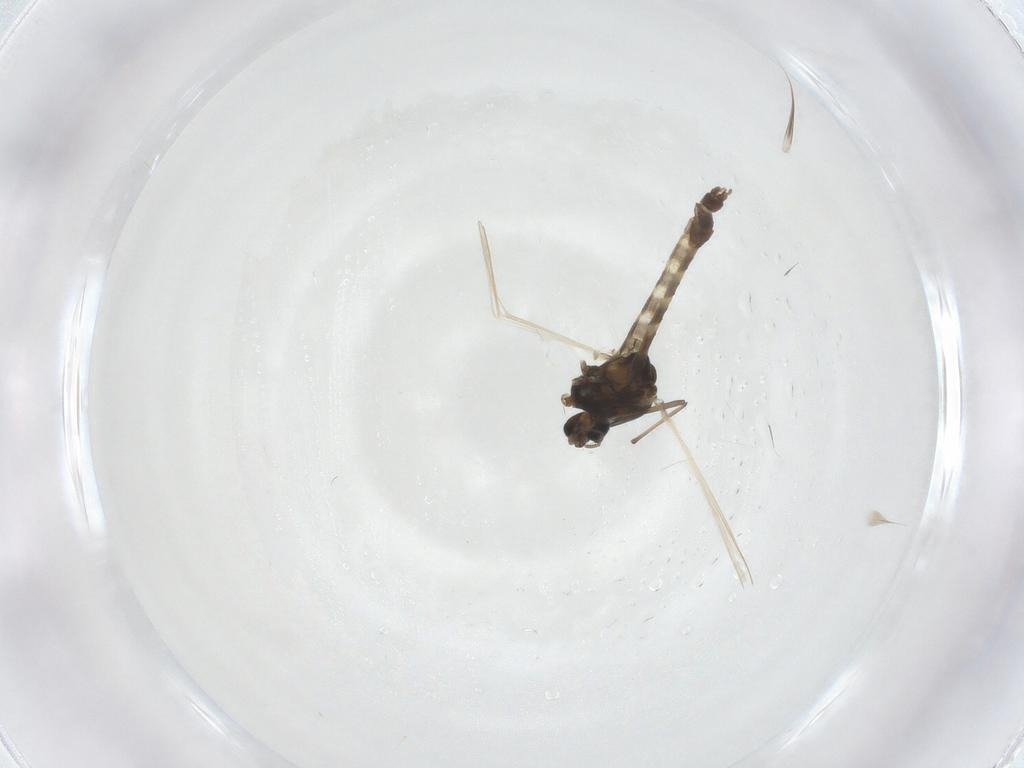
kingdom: Animalia
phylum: Arthropoda
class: Insecta
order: Diptera
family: Chironomidae
